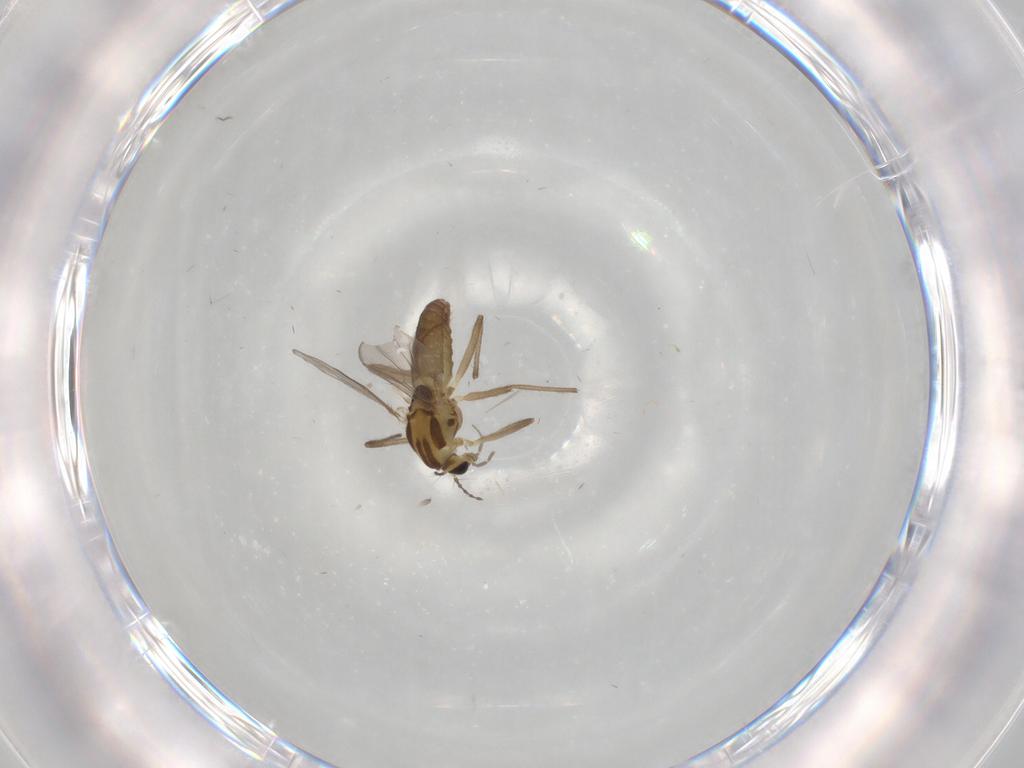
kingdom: Animalia
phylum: Arthropoda
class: Insecta
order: Diptera
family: Chironomidae
